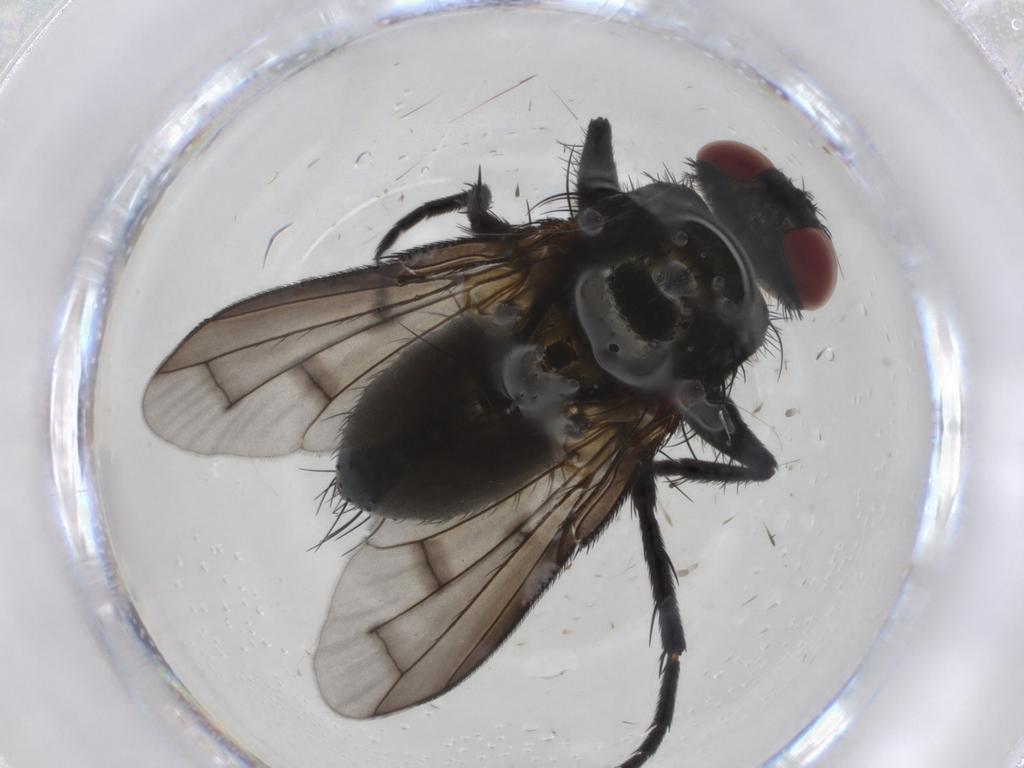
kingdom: Animalia
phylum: Arthropoda
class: Insecta
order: Diptera
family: Tachinidae
